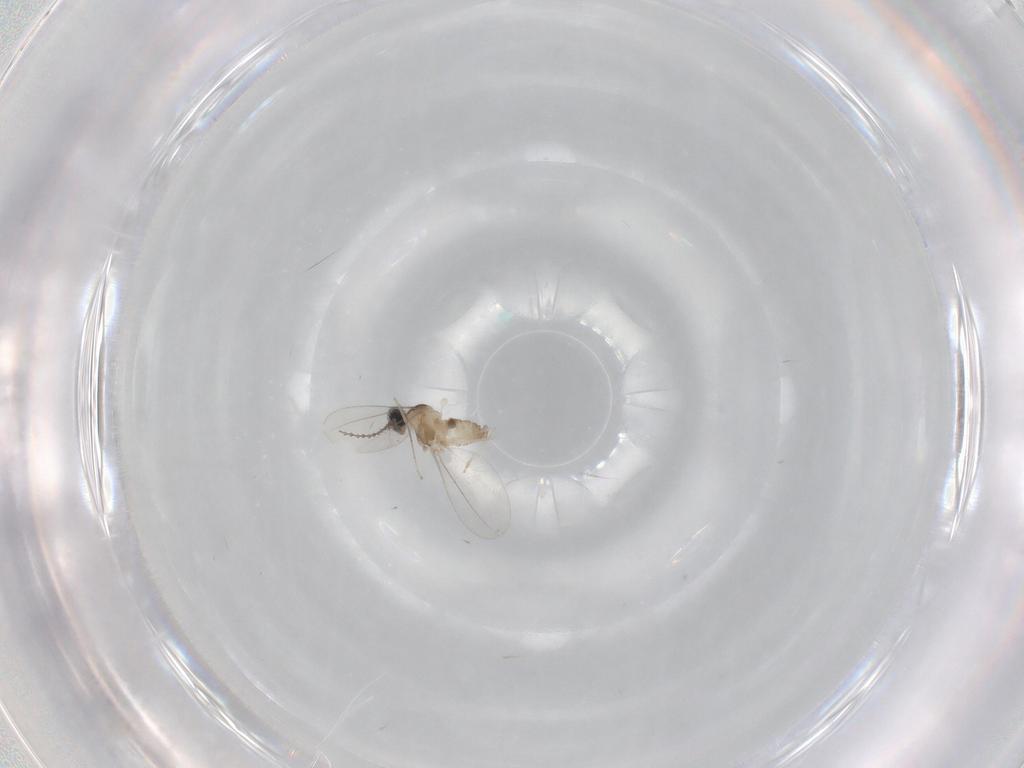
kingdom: Animalia
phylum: Arthropoda
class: Insecta
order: Diptera
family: Cecidomyiidae
